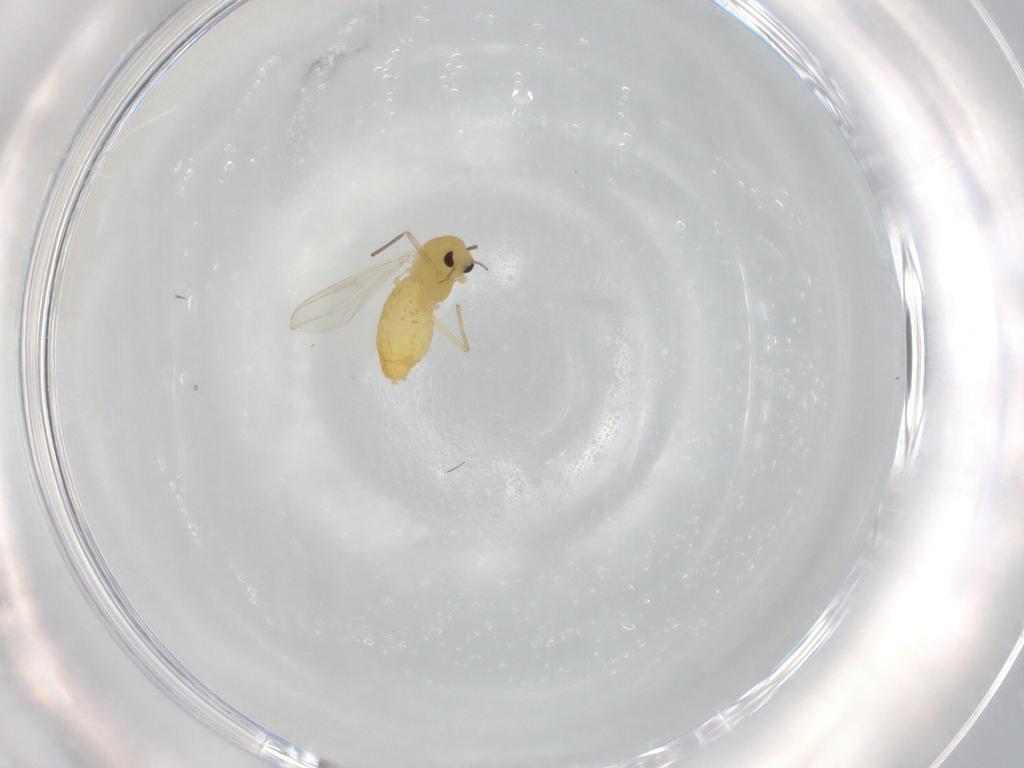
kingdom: Animalia
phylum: Arthropoda
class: Insecta
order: Diptera
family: Chironomidae
